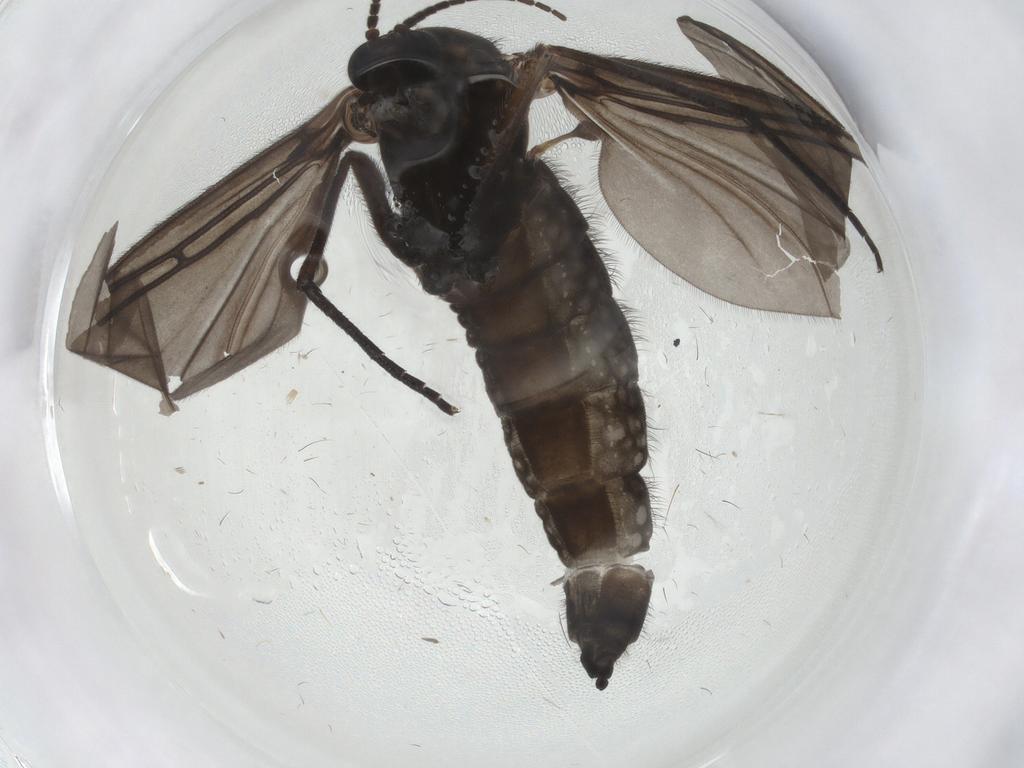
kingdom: Animalia
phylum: Arthropoda
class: Insecta
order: Diptera
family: Sciaridae
